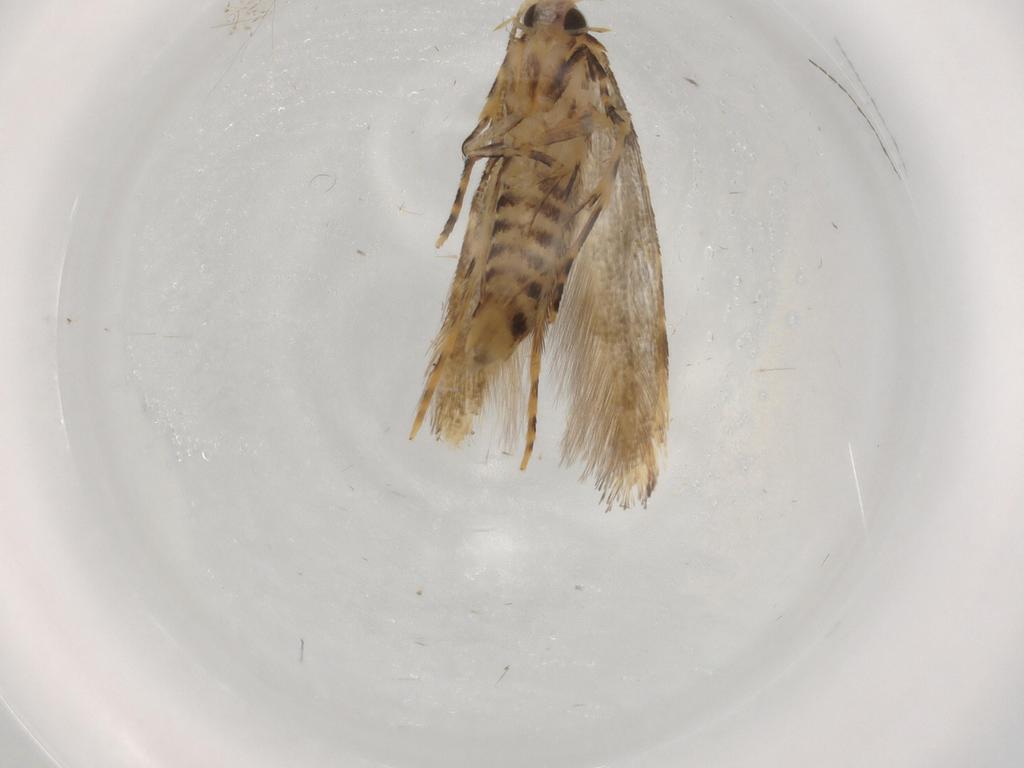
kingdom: Animalia
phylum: Arthropoda
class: Insecta
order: Lepidoptera
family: Tineidae
